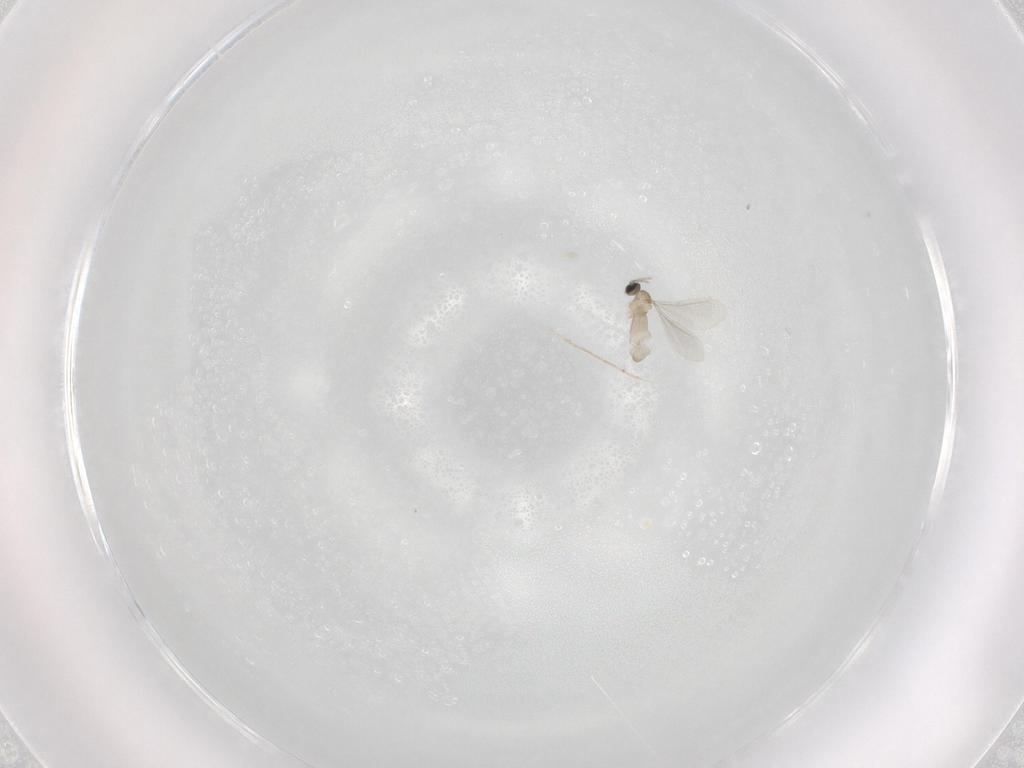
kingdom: Animalia
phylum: Arthropoda
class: Insecta
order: Diptera
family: Cecidomyiidae
